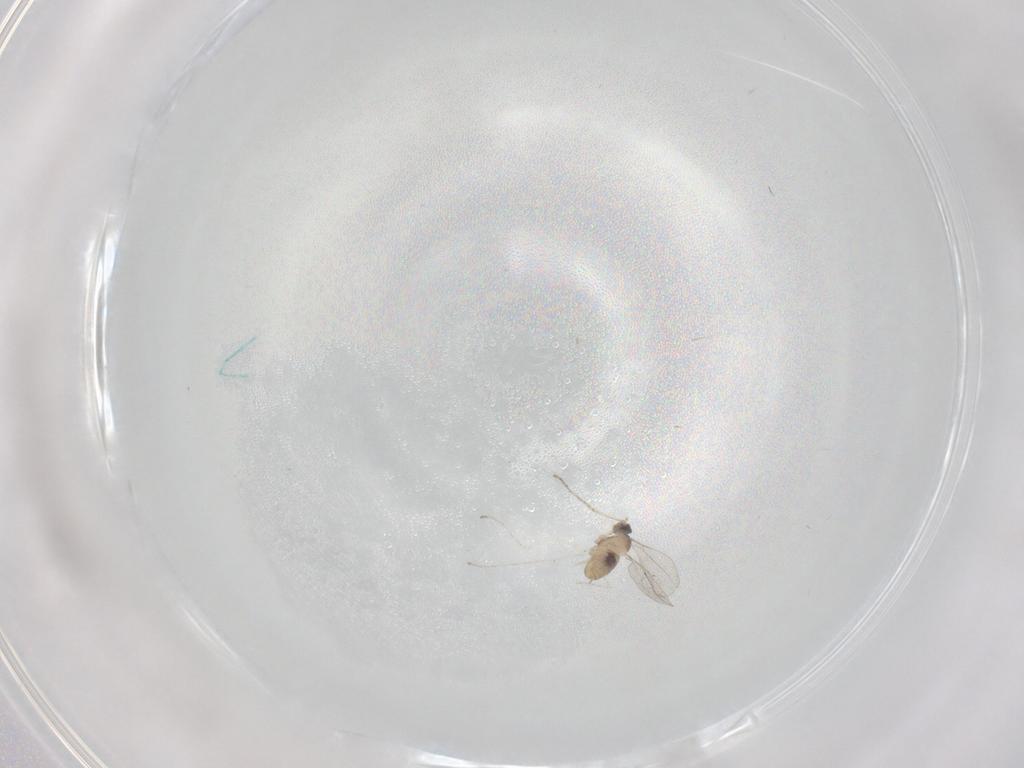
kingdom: Animalia
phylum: Arthropoda
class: Insecta
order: Diptera
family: Cecidomyiidae
